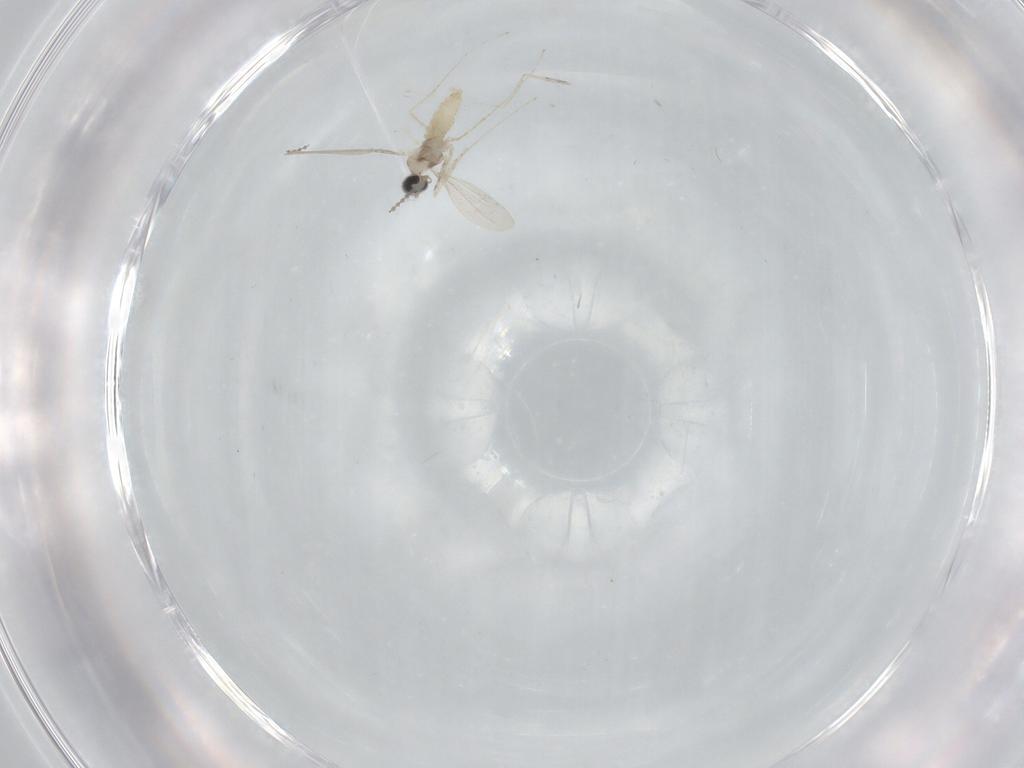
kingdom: Animalia
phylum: Arthropoda
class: Insecta
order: Diptera
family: Cecidomyiidae
